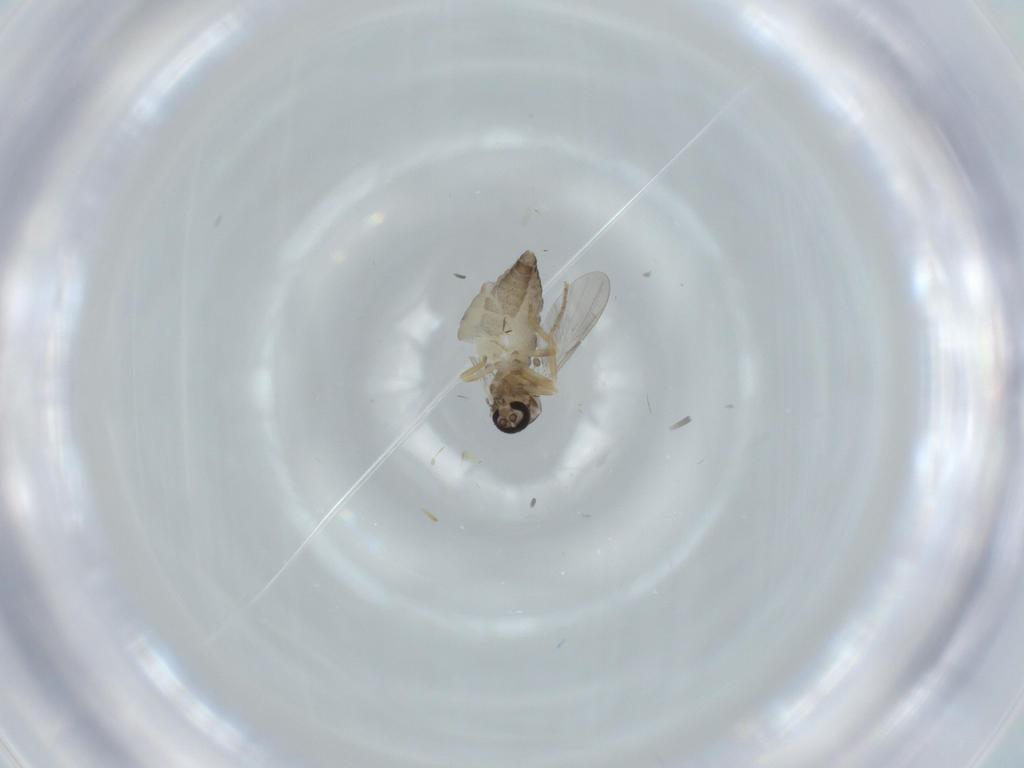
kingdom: Animalia
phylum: Arthropoda
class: Insecta
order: Diptera
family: Ceratopogonidae
